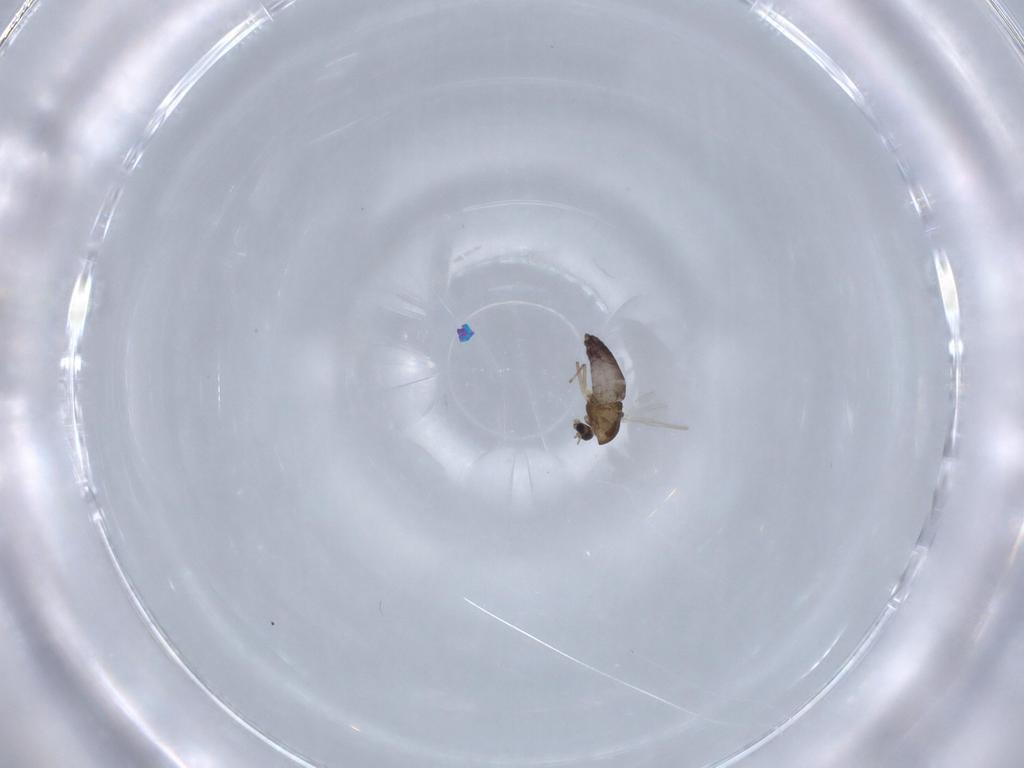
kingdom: Animalia
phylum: Arthropoda
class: Insecta
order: Diptera
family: Chironomidae
